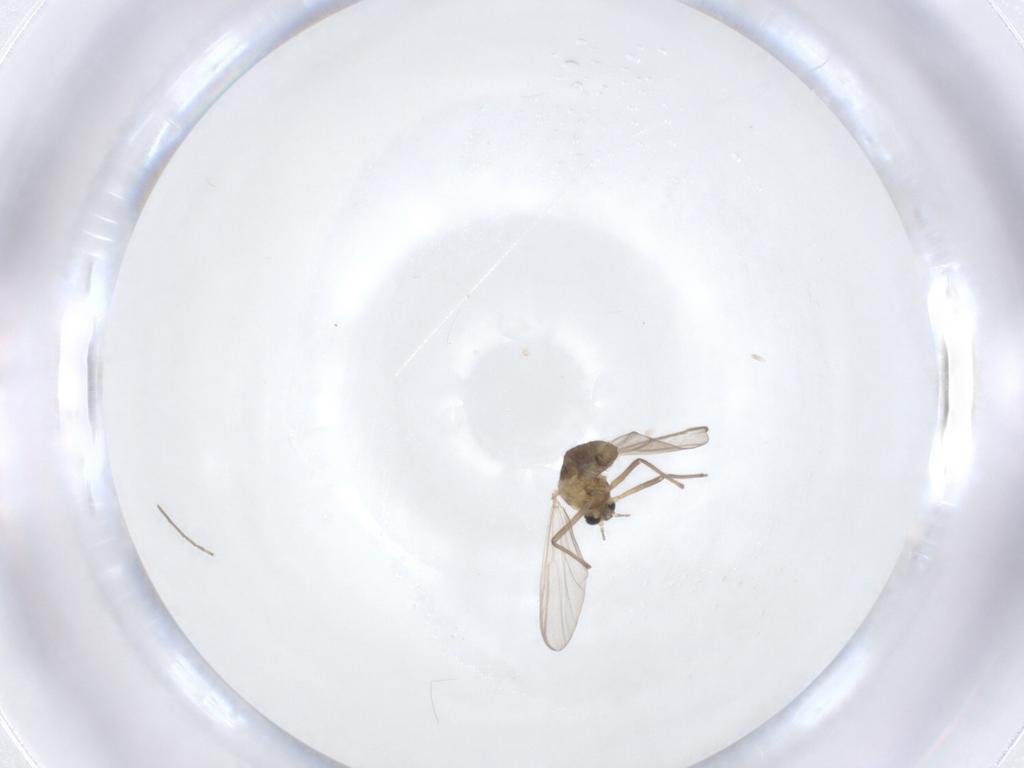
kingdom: Animalia
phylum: Arthropoda
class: Insecta
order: Diptera
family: Chironomidae
